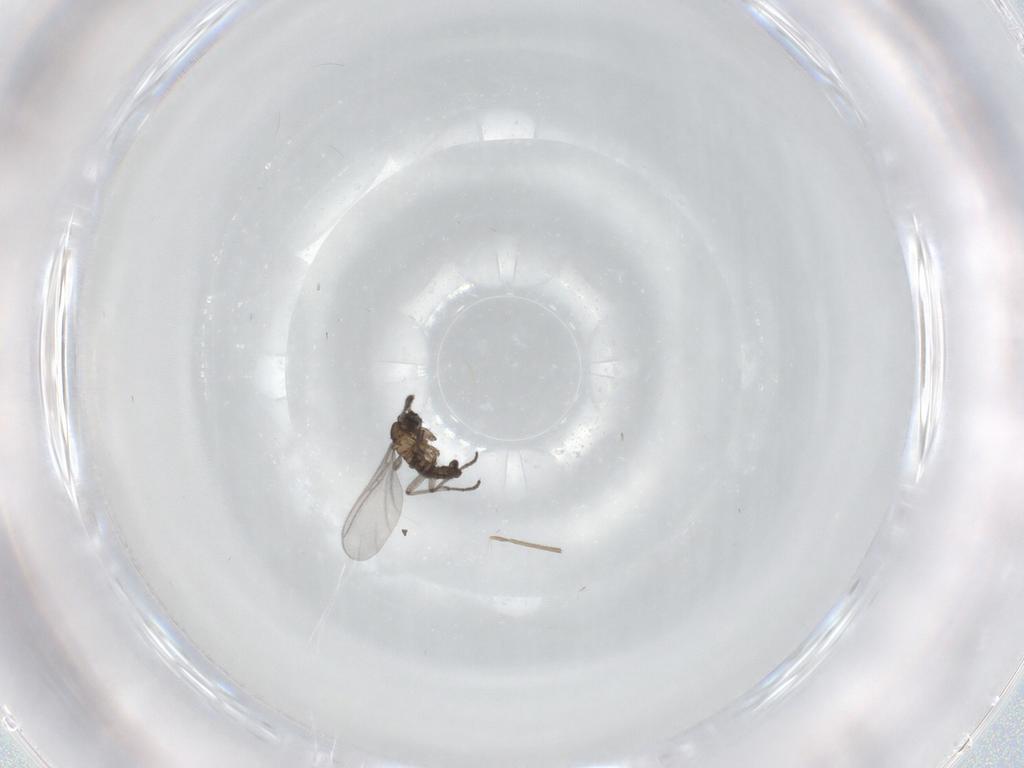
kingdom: Animalia
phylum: Arthropoda
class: Insecta
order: Diptera
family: Chironomidae
